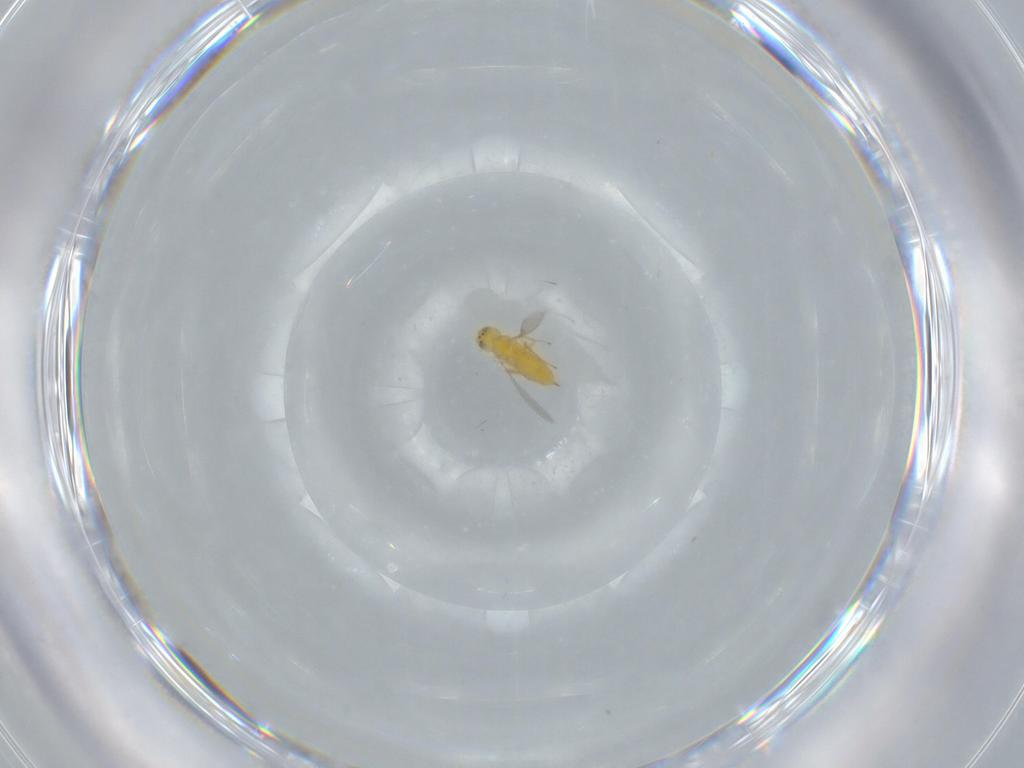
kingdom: Animalia
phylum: Arthropoda
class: Insecta
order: Hymenoptera
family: Aphelinidae
